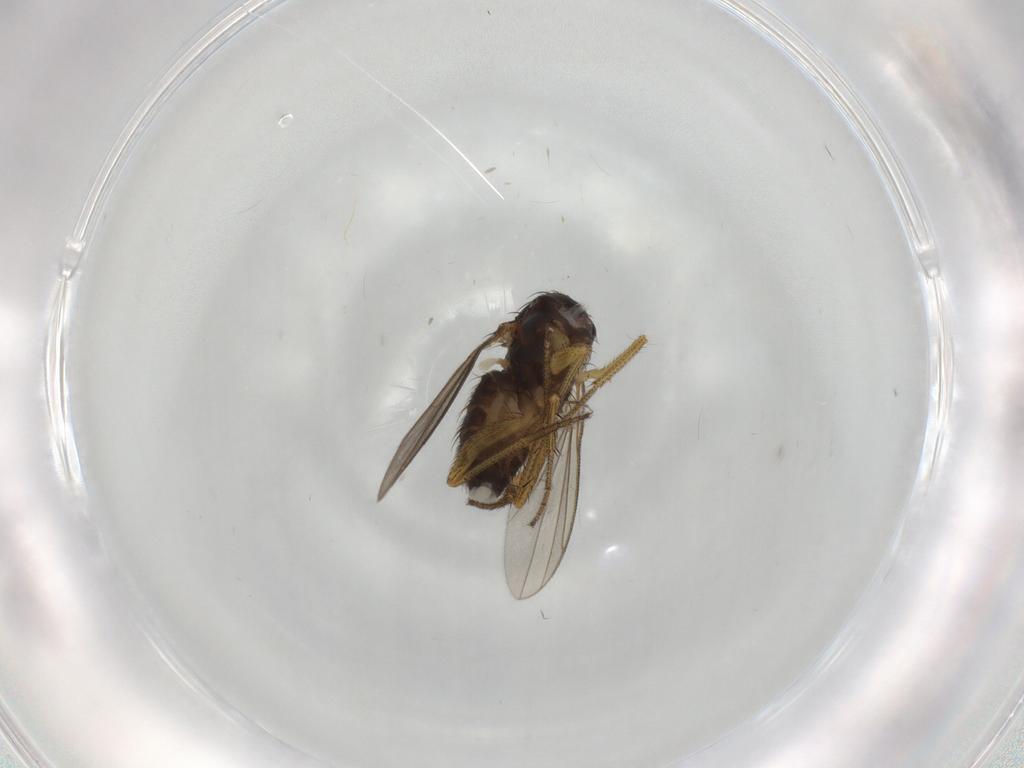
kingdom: Animalia
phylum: Arthropoda
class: Insecta
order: Diptera
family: Dolichopodidae
